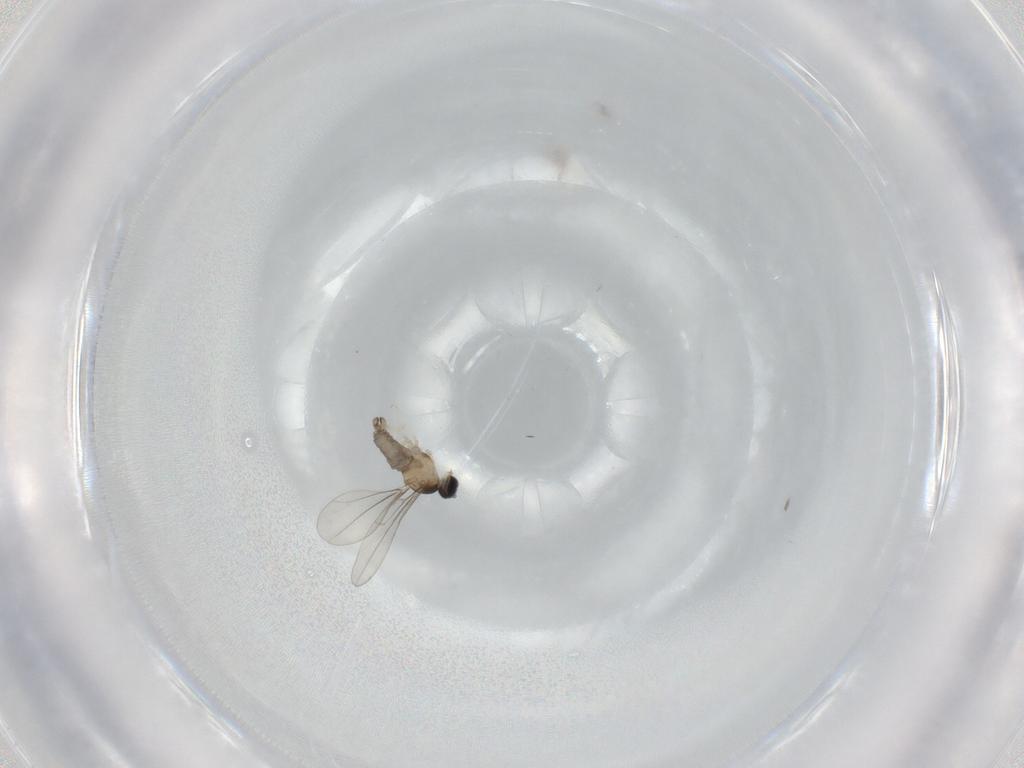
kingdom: Animalia
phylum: Arthropoda
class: Insecta
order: Diptera
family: Cecidomyiidae
